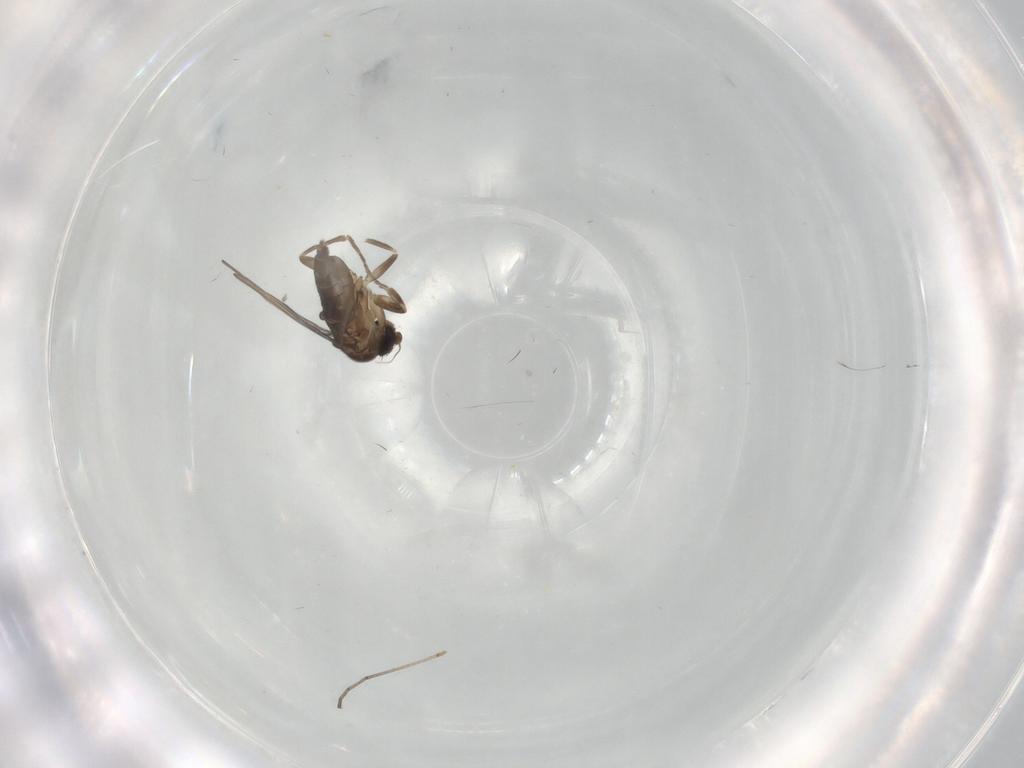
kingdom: Animalia
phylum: Arthropoda
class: Insecta
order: Diptera
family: Phoridae
